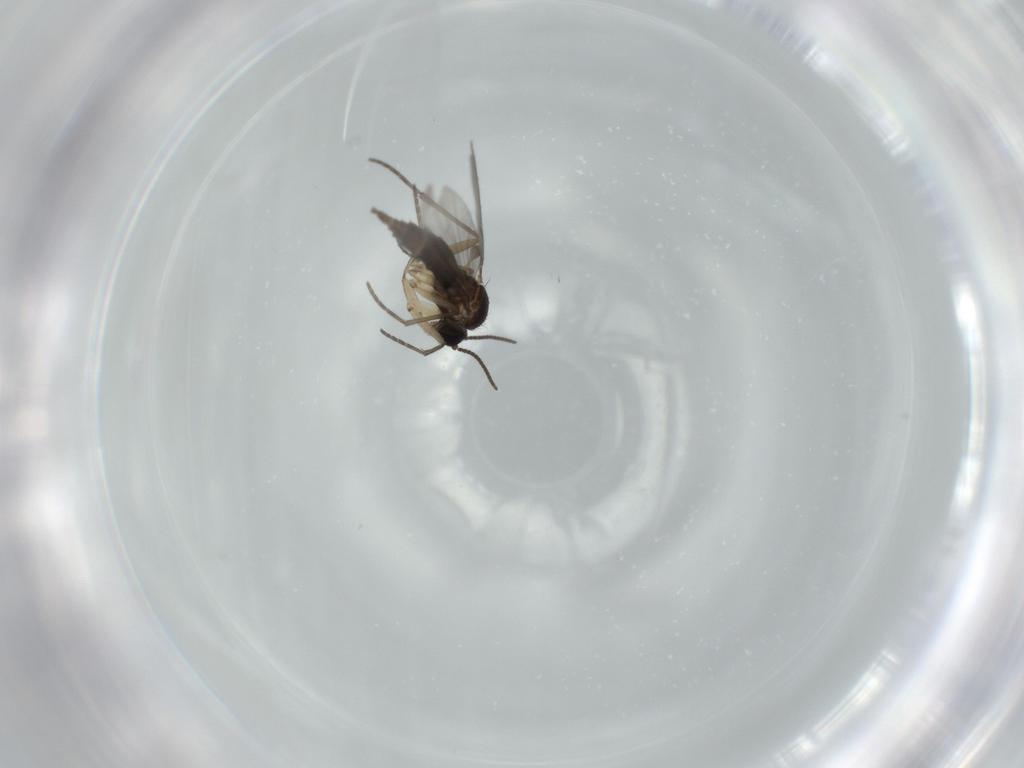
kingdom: Animalia
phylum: Arthropoda
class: Insecta
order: Diptera
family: Sciaridae
